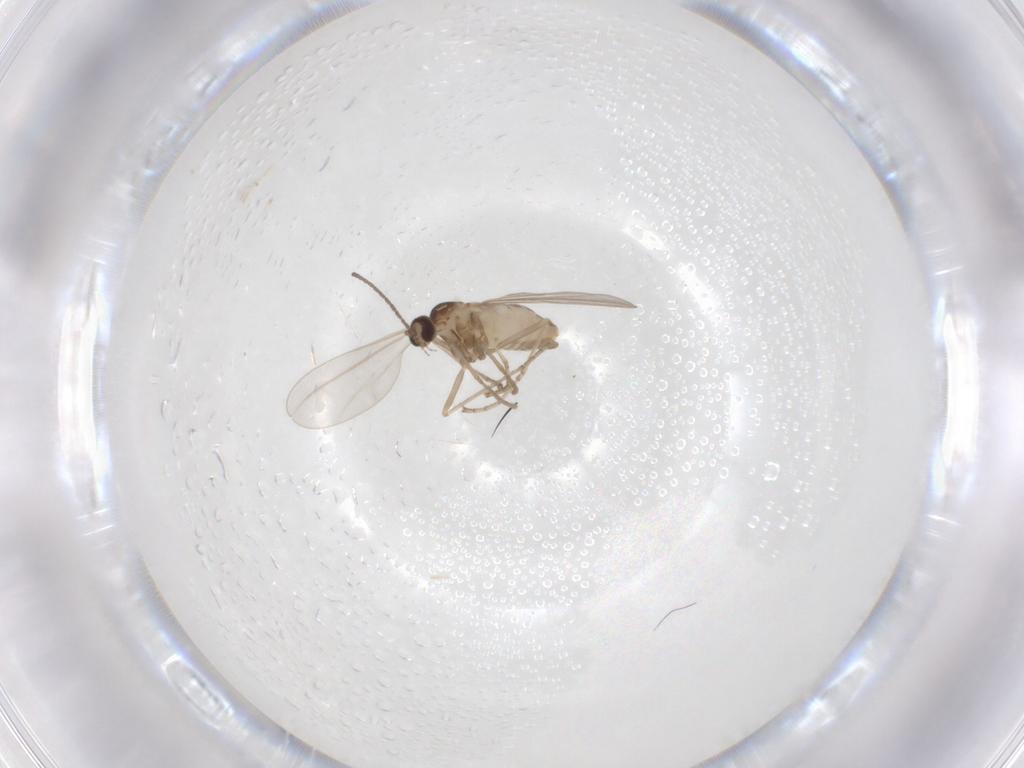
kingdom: Animalia
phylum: Arthropoda
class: Insecta
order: Diptera
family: Cecidomyiidae
